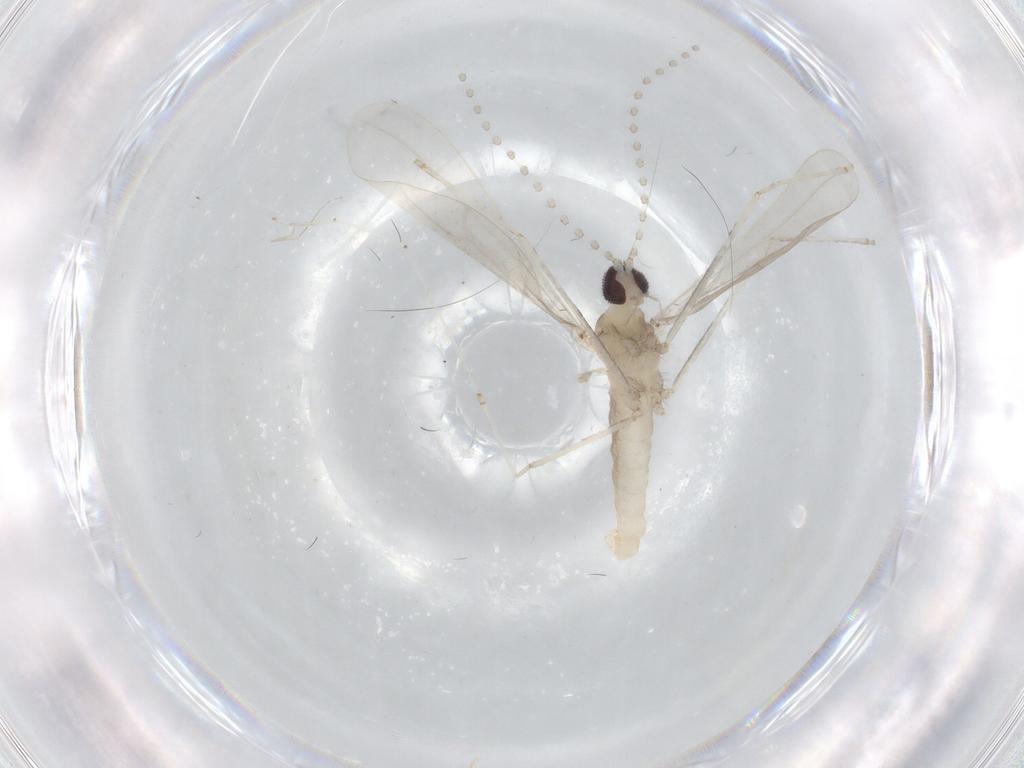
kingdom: Animalia
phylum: Arthropoda
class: Insecta
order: Diptera
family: Cecidomyiidae
